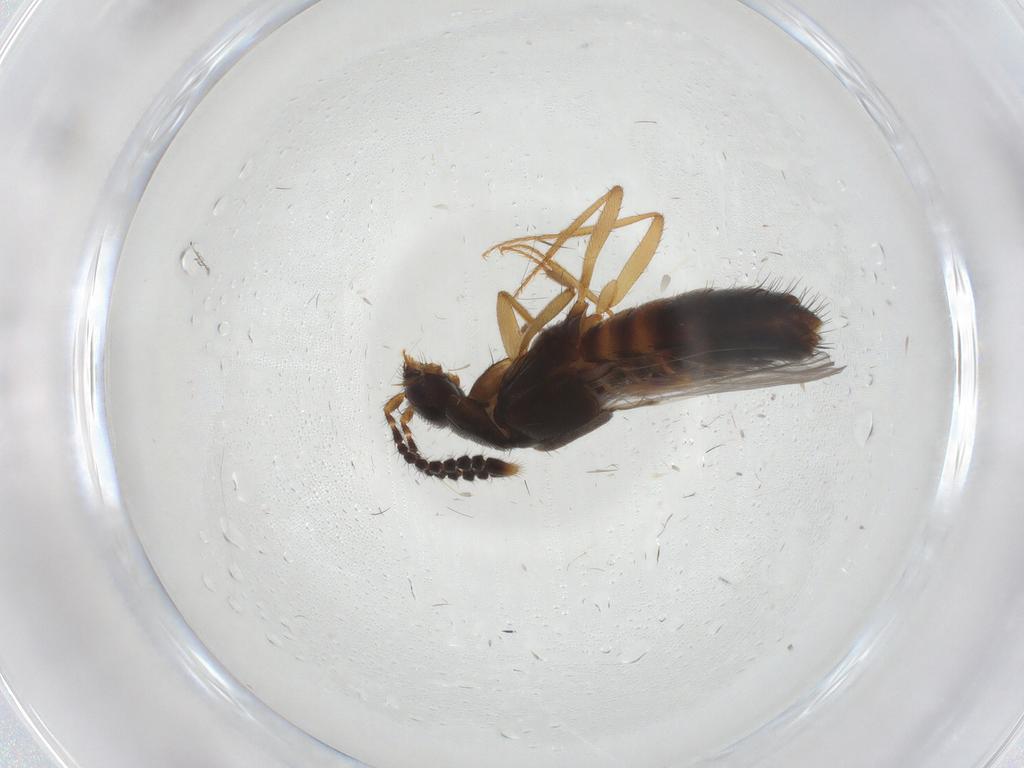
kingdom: Animalia
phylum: Arthropoda
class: Insecta
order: Coleoptera
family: Staphylinidae
